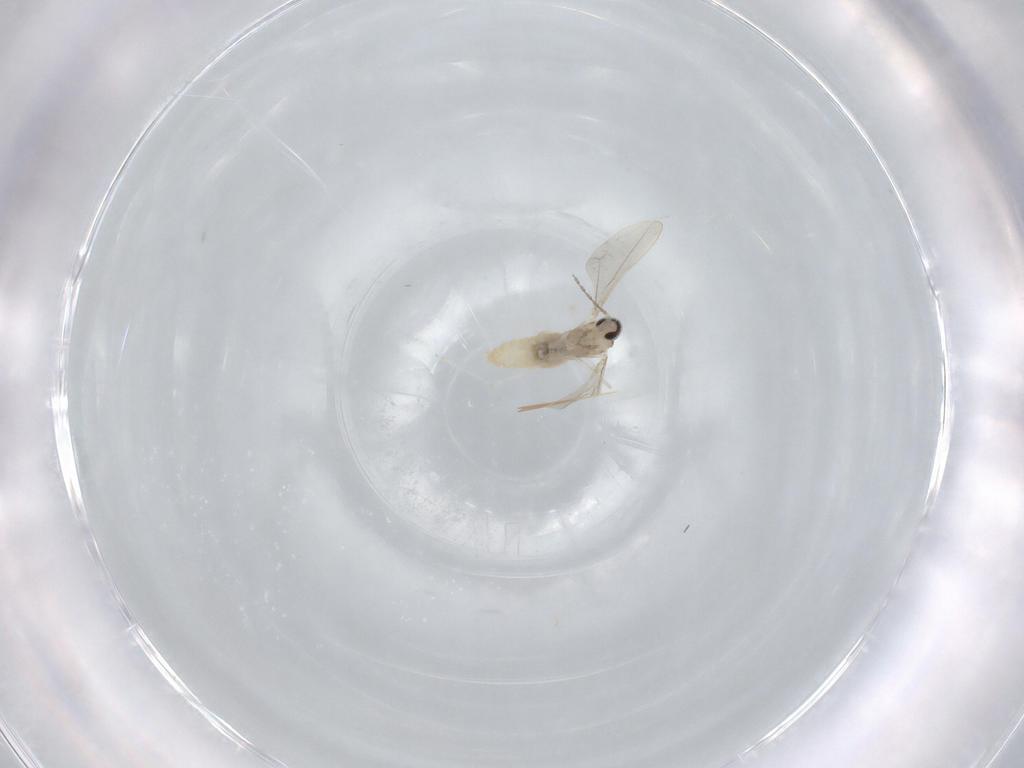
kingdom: Animalia
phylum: Arthropoda
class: Insecta
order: Diptera
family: Cecidomyiidae
